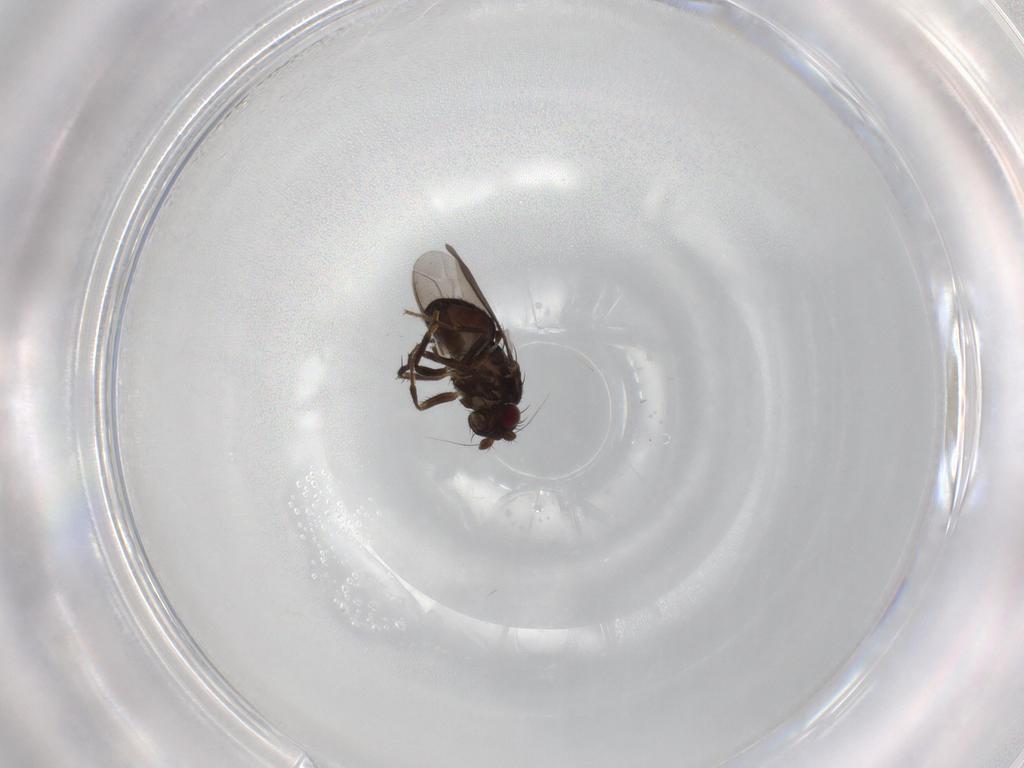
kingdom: Animalia
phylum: Arthropoda
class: Insecta
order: Diptera
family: Sphaeroceridae
